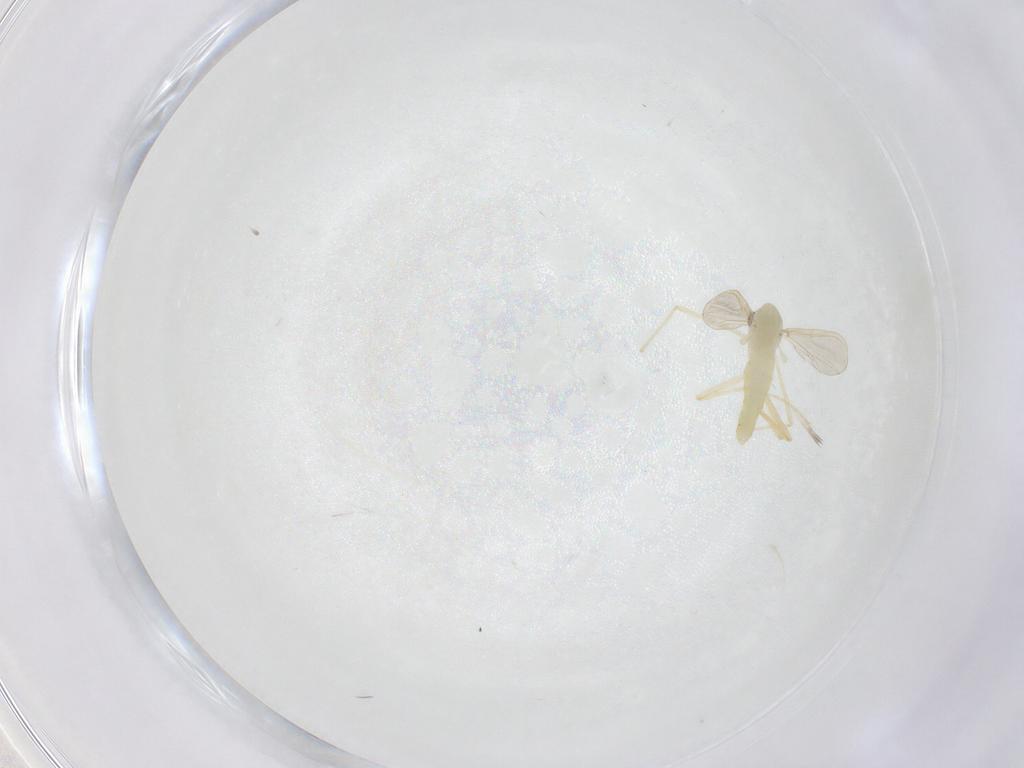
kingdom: Animalia
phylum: Arthropoda
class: Insecta
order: Diptera
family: Chironomidae
